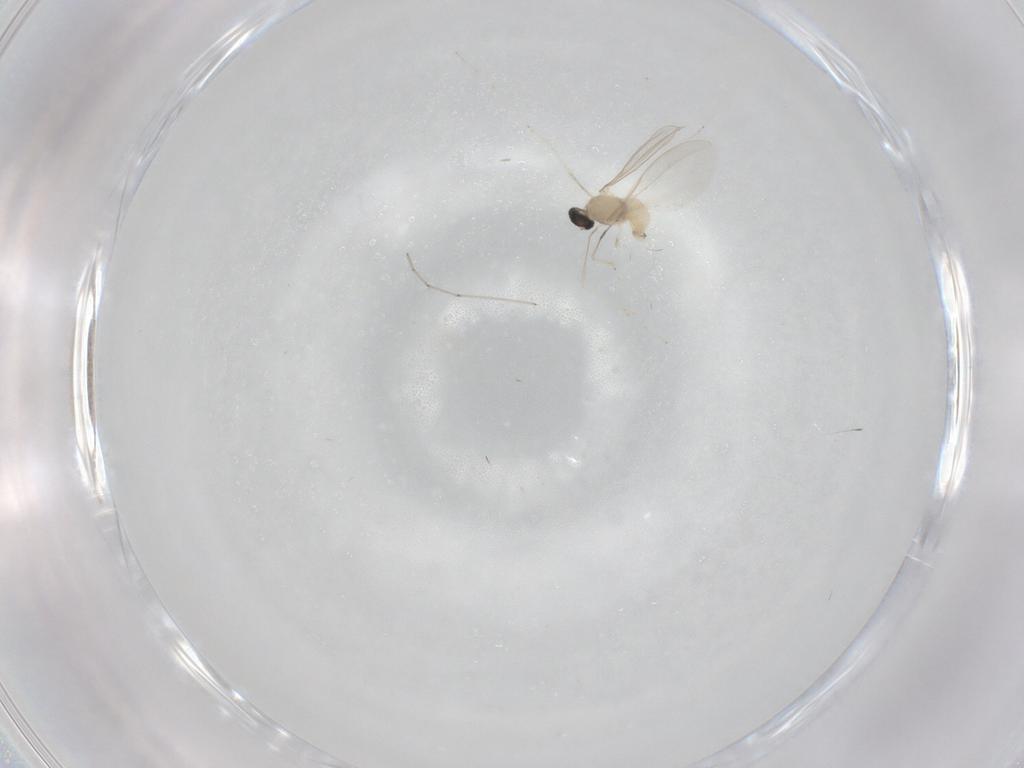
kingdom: Animalia
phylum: Arthropoda
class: Insecta
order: Diptera
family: Cecidomyiidae
